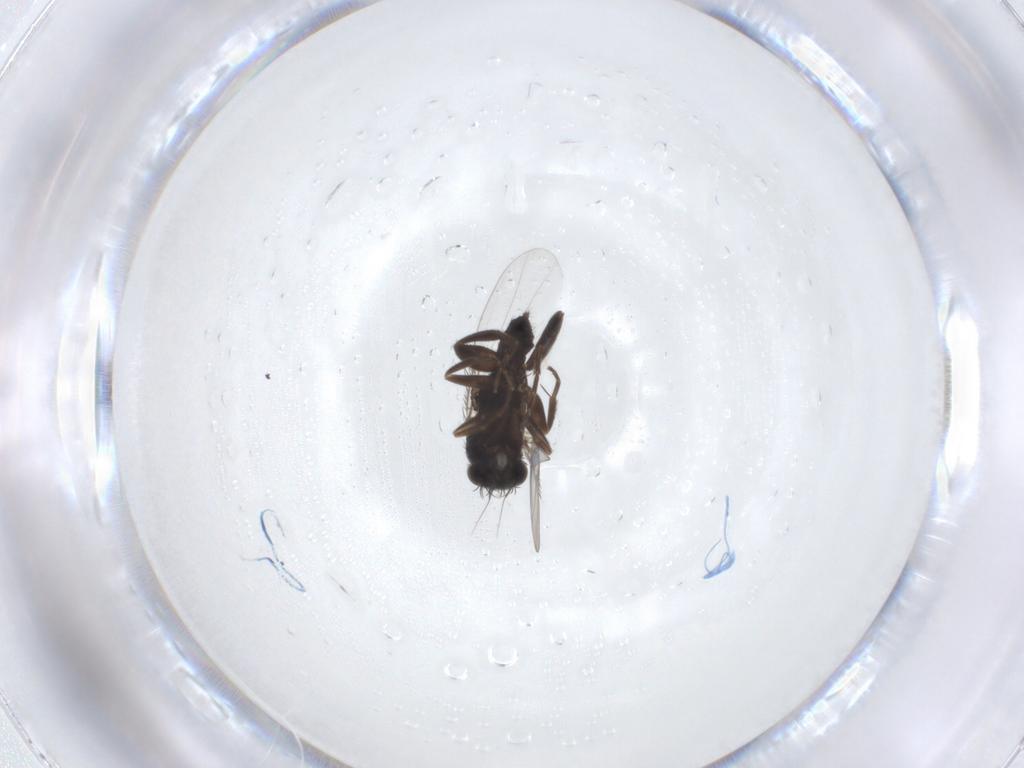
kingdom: Animalia
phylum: Arthropoda
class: Insecta
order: Diptera
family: Phoridae
